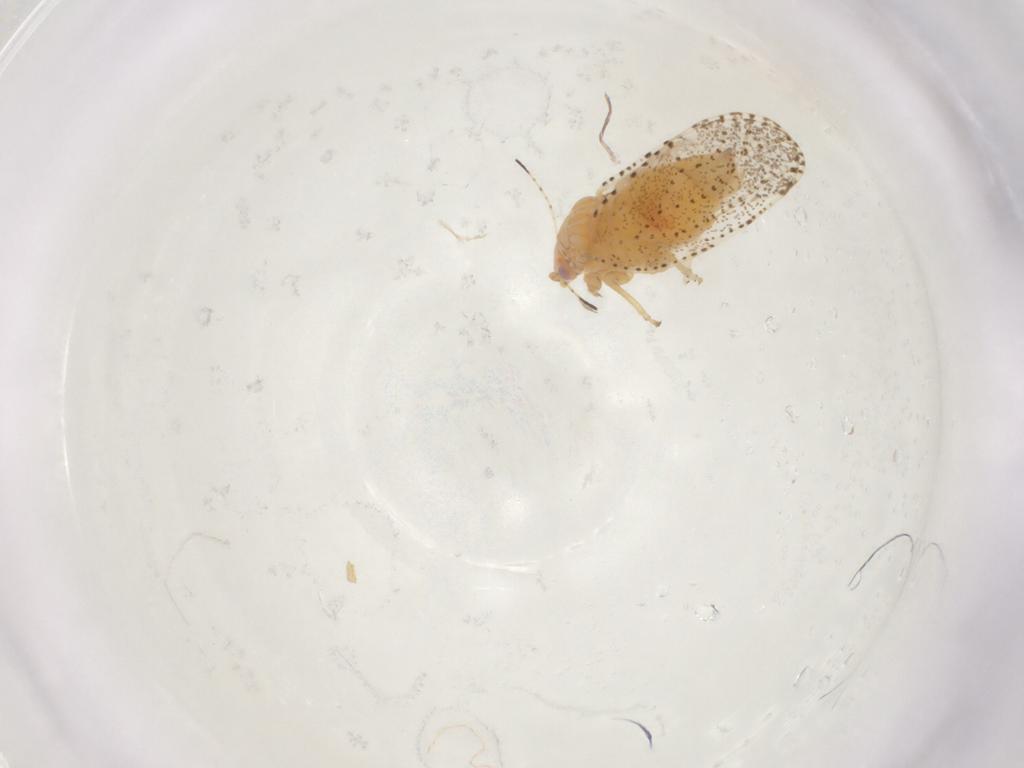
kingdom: Animalia
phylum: Arthropoda
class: Insecta
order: Hemiptera
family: Psylloidea_incertae_sedis
